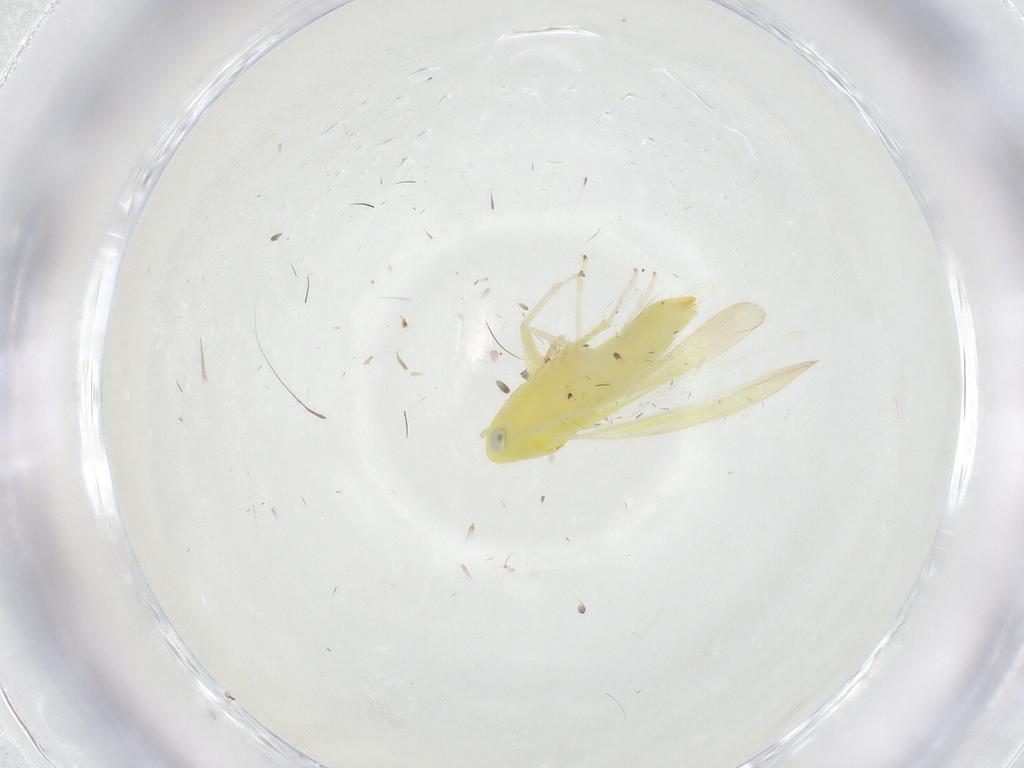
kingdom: Animalia
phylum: Arthropoda
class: Insecta
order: Hemiptera
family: Cicadellidae
